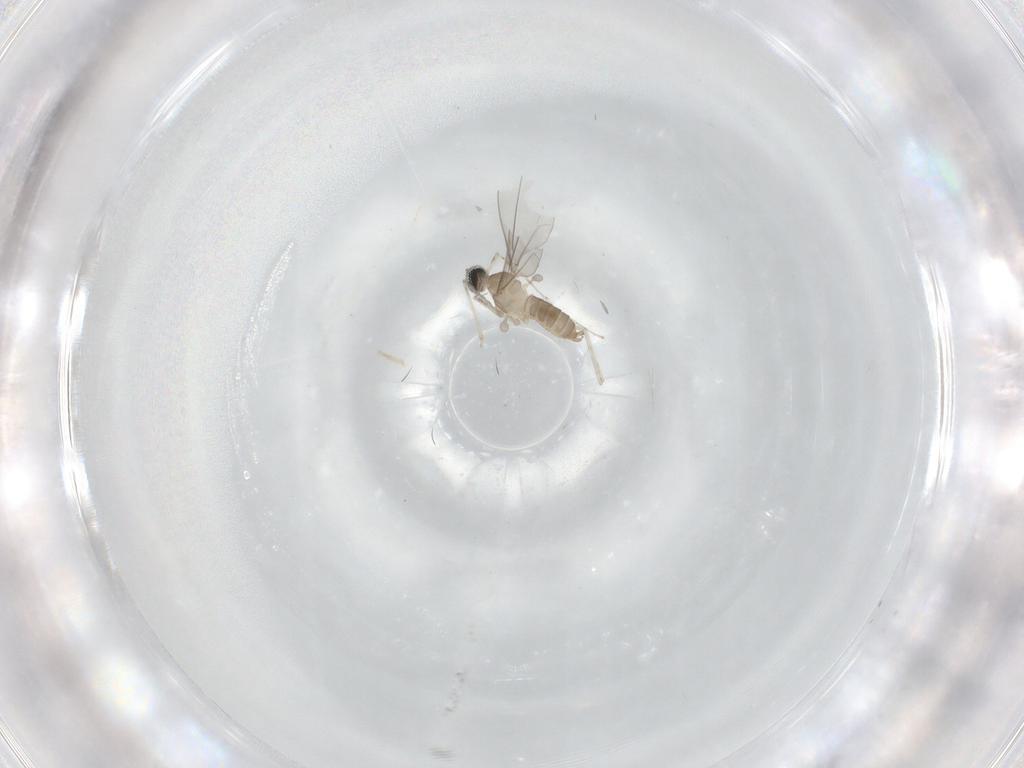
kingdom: Animalia
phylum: Arthropoda
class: Insecta
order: Diptera
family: Cecidomyiidae
